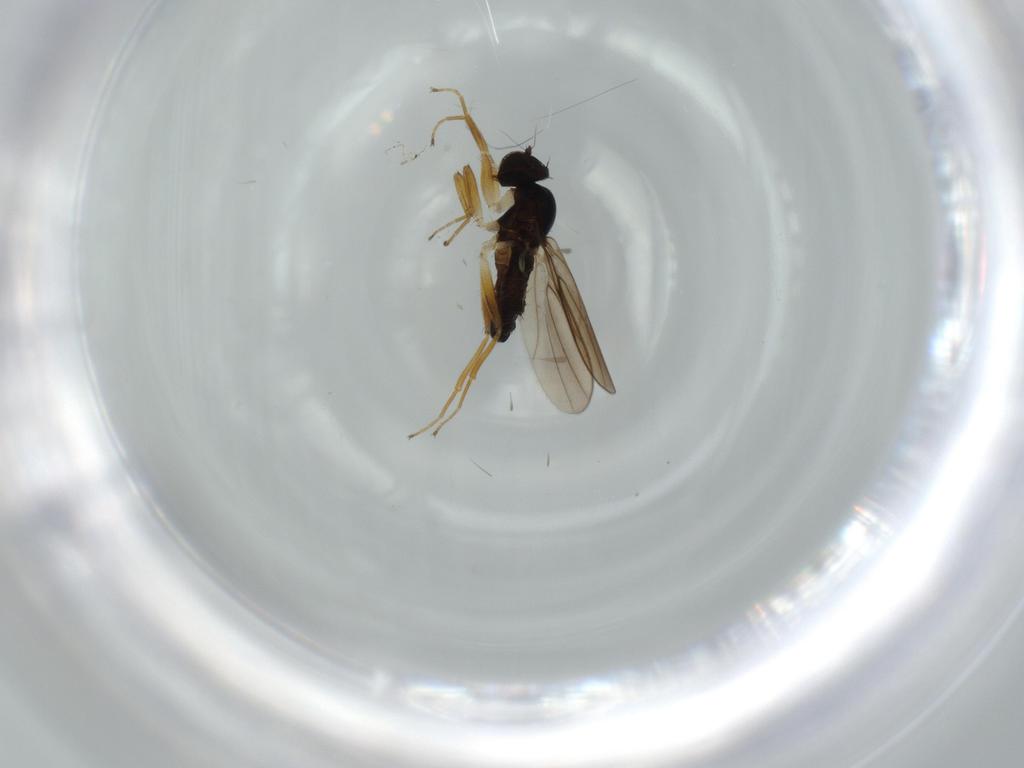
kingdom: Animalia
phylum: Arthropoda
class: Insecta
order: Diptera
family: Hybotidae
